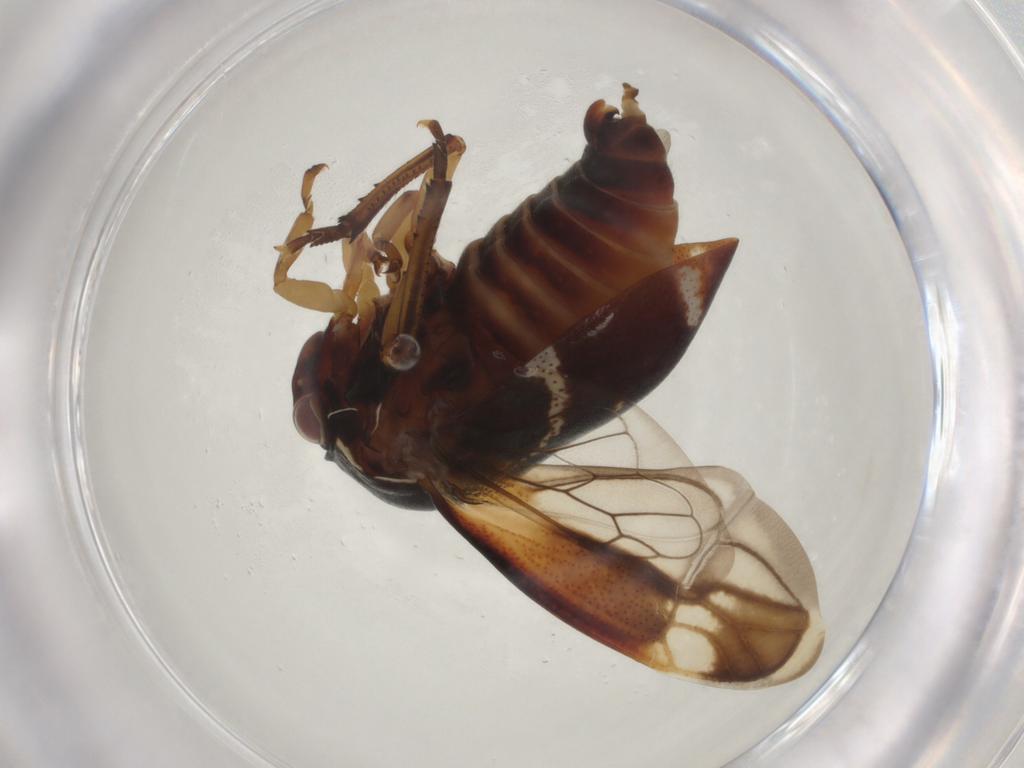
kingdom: Animalia
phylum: Arthropoda
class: Insecta
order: Hemiptera
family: Membracidae
